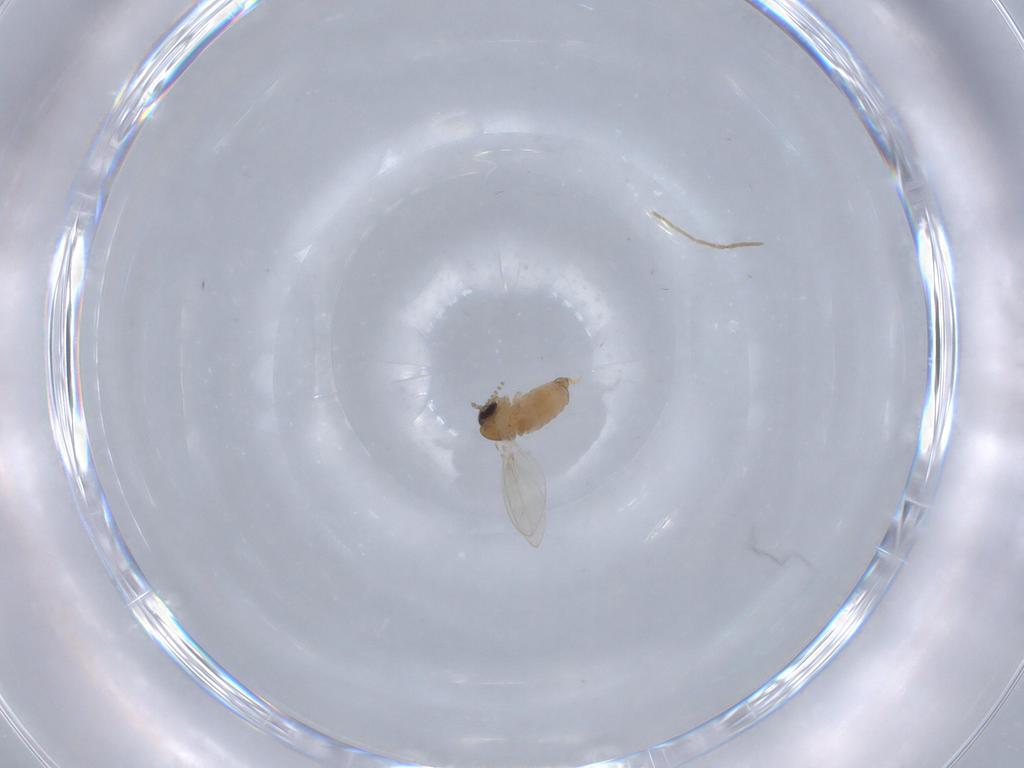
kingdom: Animalia
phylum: Arthropoda
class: Insecta
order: Diptera
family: Psychodidae
